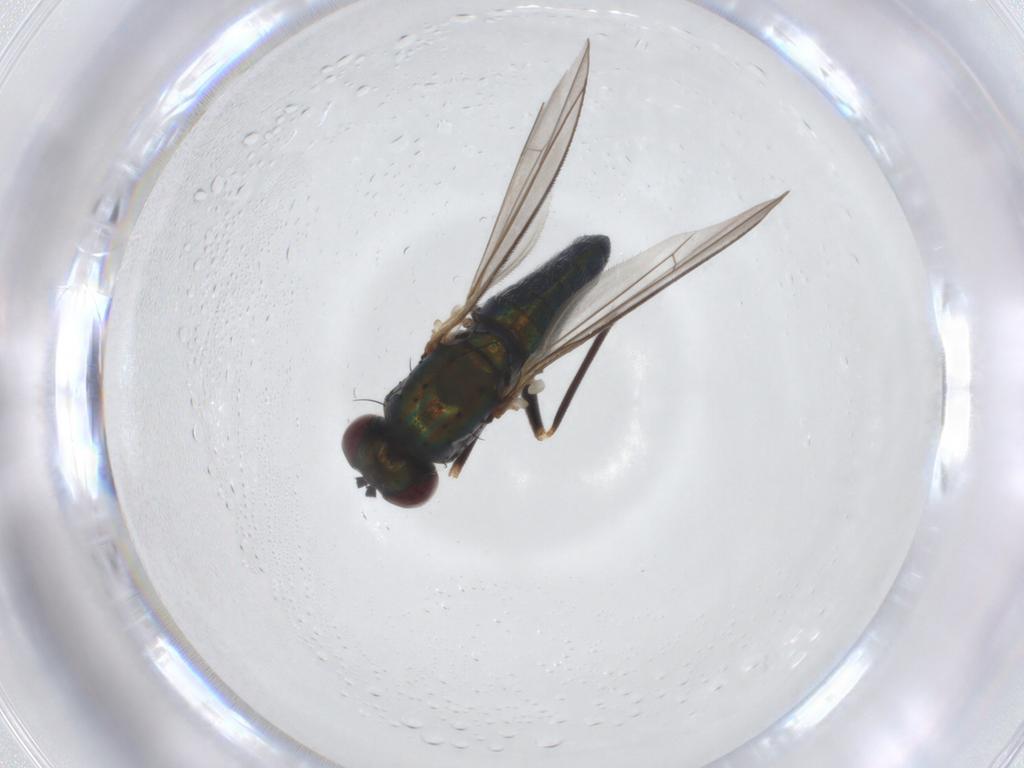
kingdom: Animalia
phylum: Arthropoda
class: Insecta
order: Diptera
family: Dolichopodidae
